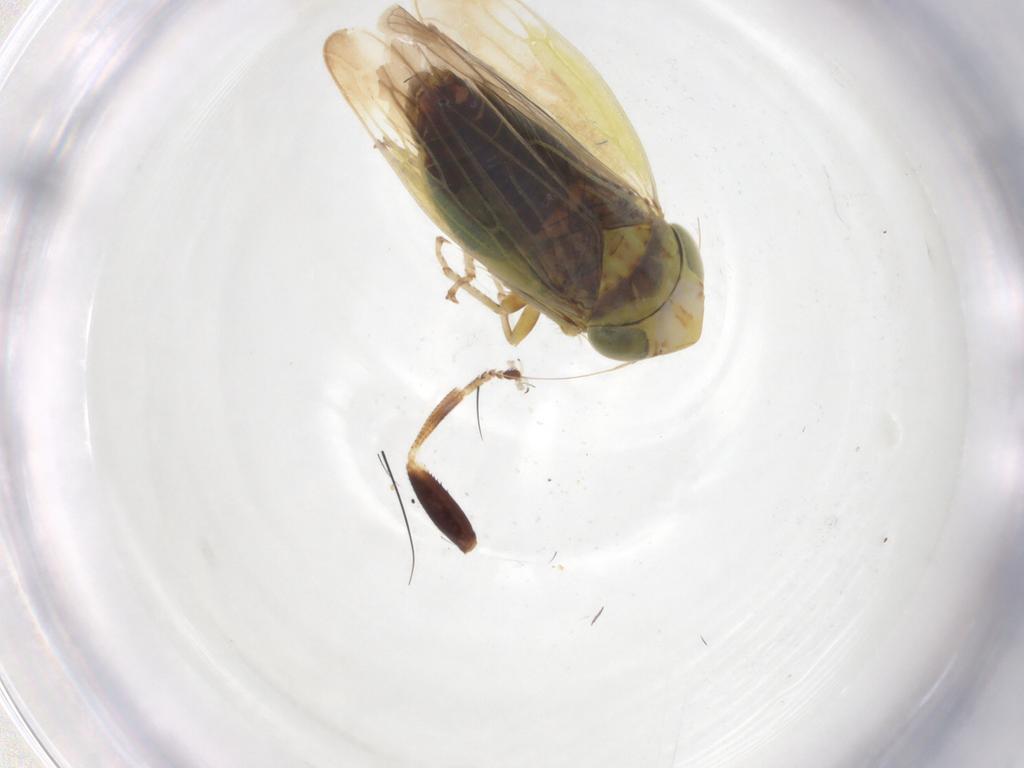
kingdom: Animalia
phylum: Arthropoda
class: Insecta
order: Hemiptera
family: Cicadellidae
